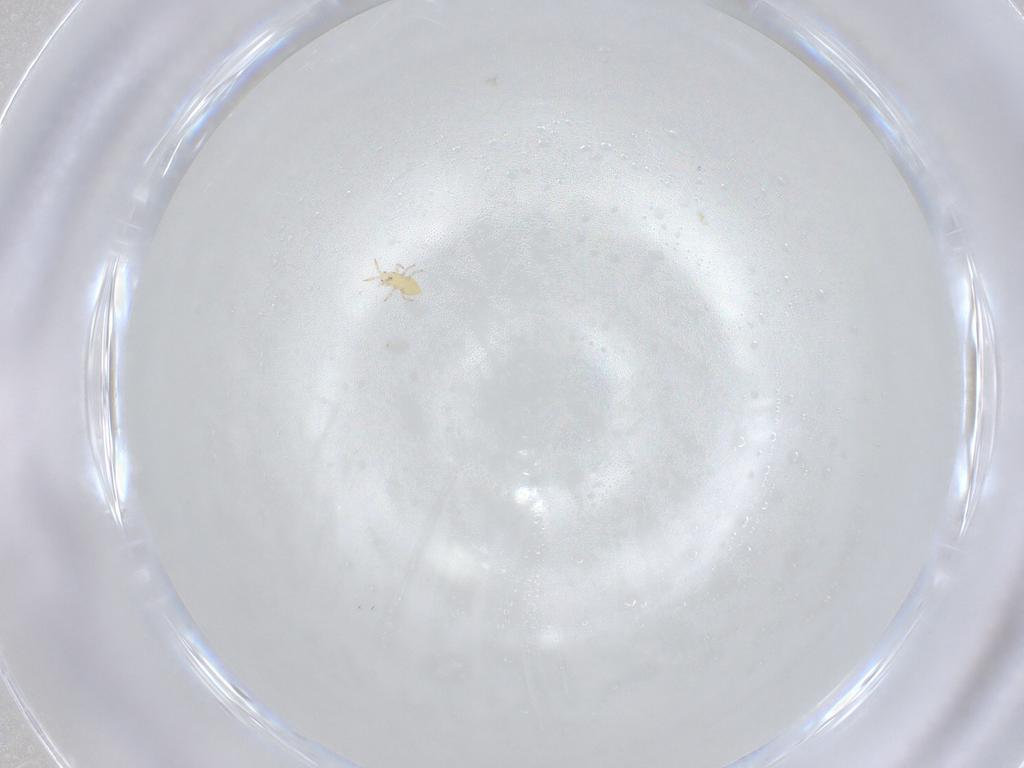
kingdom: Animalia
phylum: Arthropoda
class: Insecta
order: Thysanoptera
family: Thripidae
